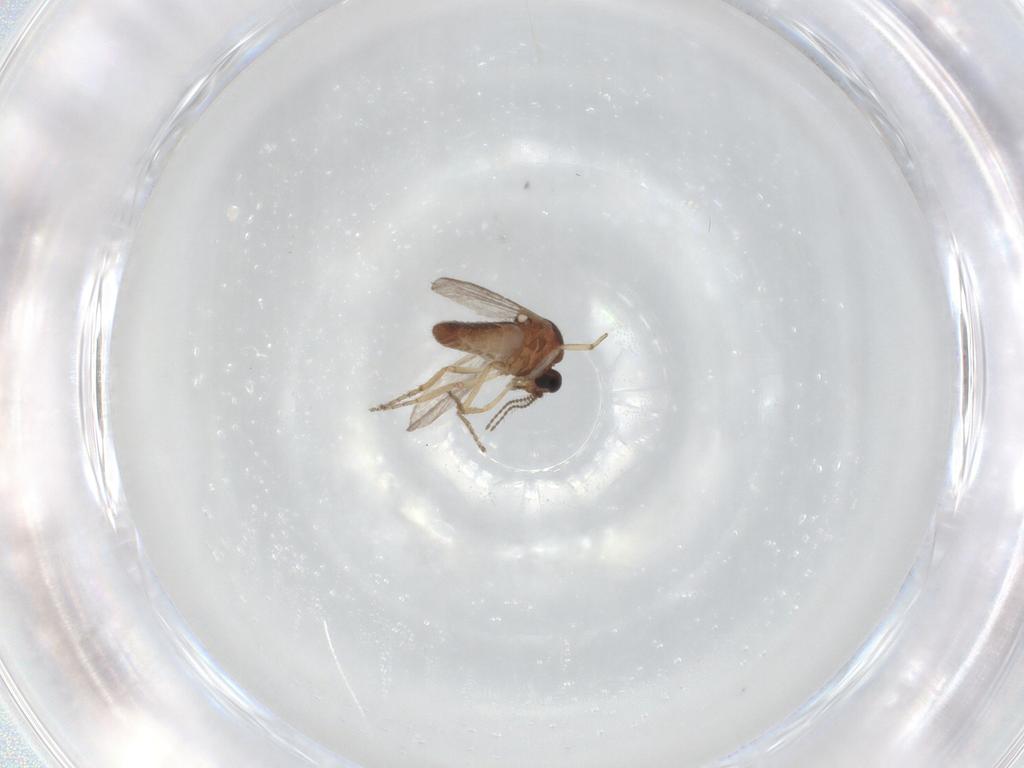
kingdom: Animalia
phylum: Arthropoda
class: Insecta
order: Diptera
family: Ceratopogonidae
